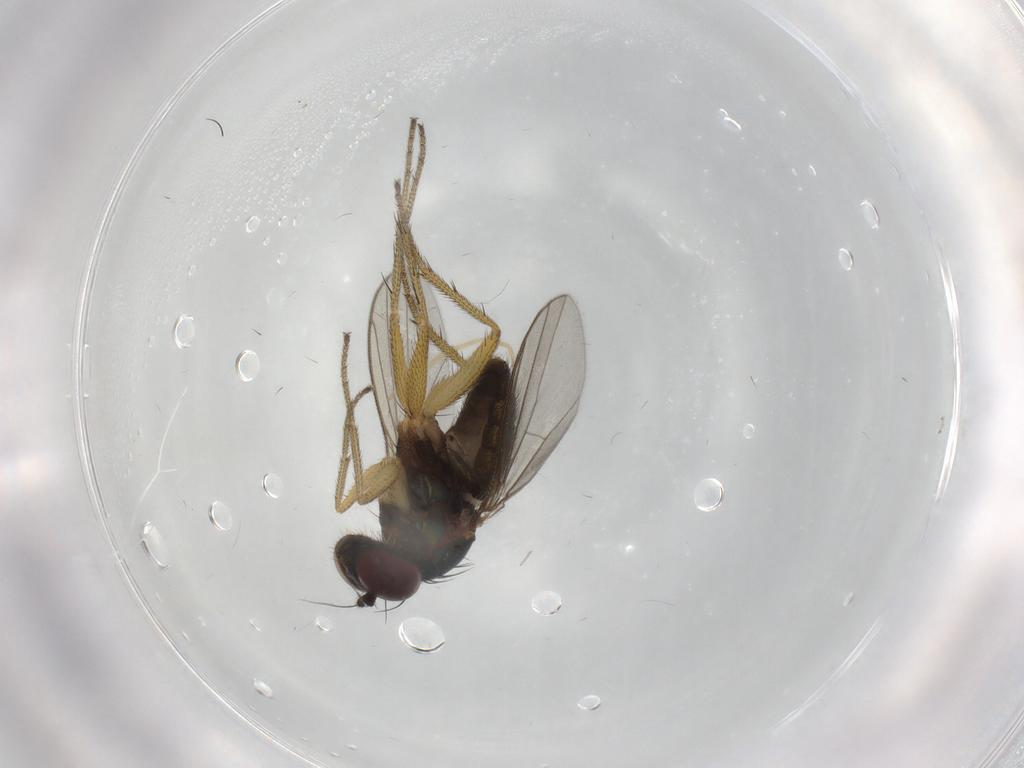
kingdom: Animalia
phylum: Arthropoda
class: Insecta
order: Diptera
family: Dolichopodidae
